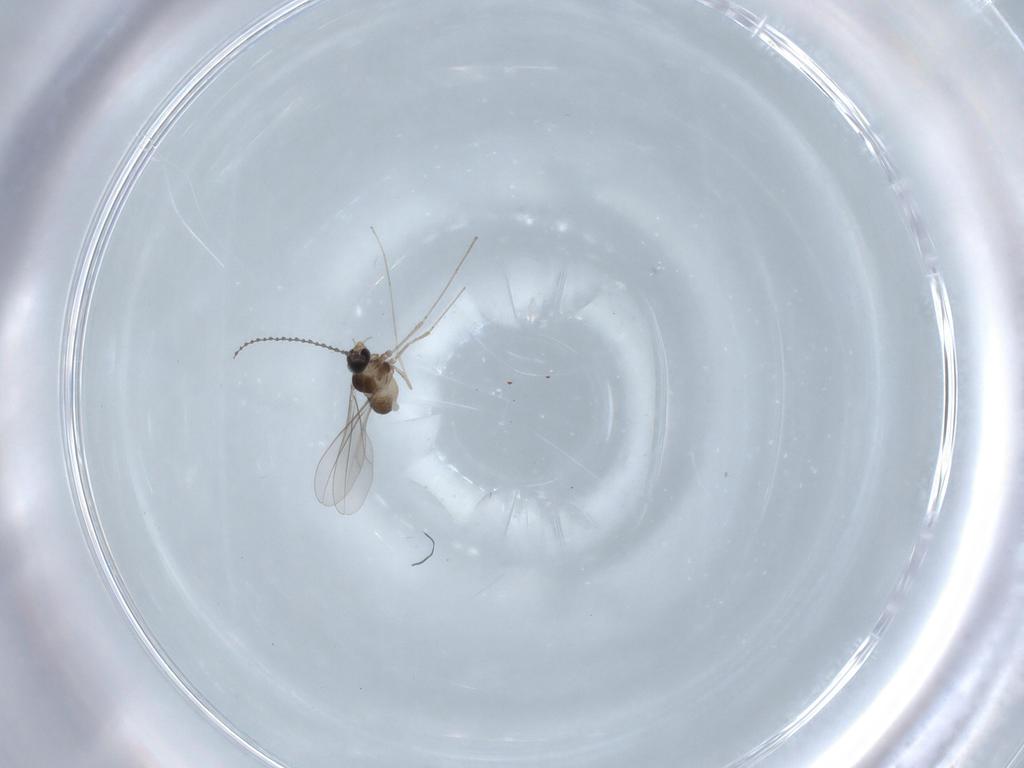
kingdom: Animalia
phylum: Arthropoda
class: Insecta
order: Diptera
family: Cecidomyiidae
